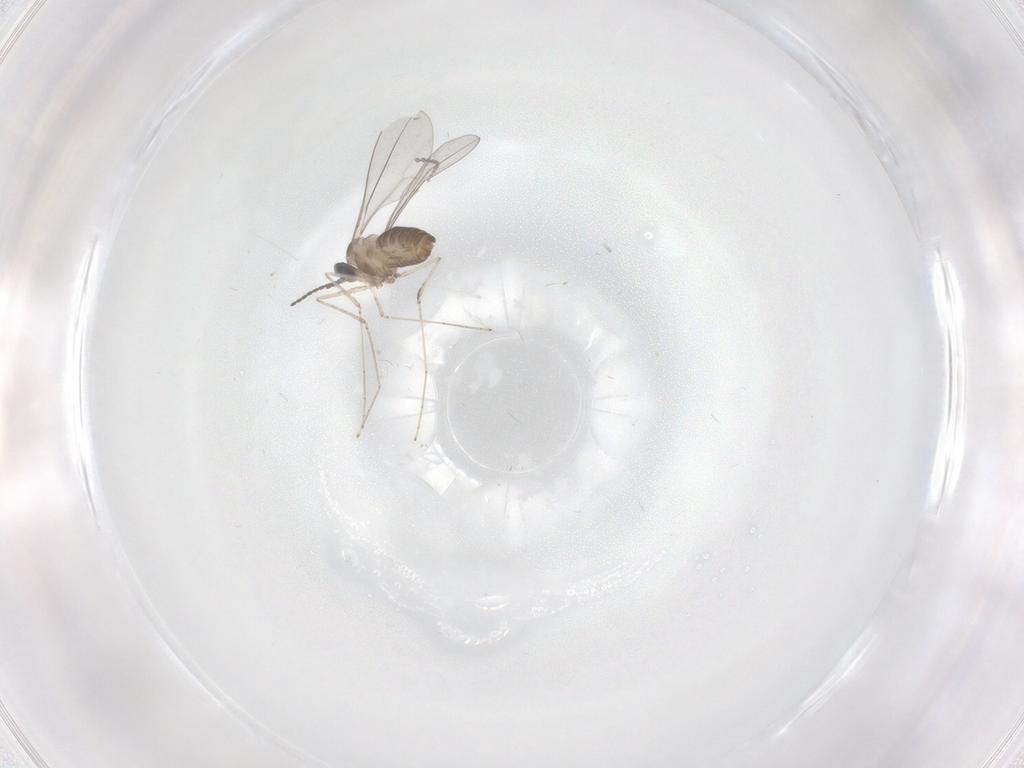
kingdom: Animalia
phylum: Arthropoda
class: Insecta
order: Diptera
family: Cecidomyiidae
